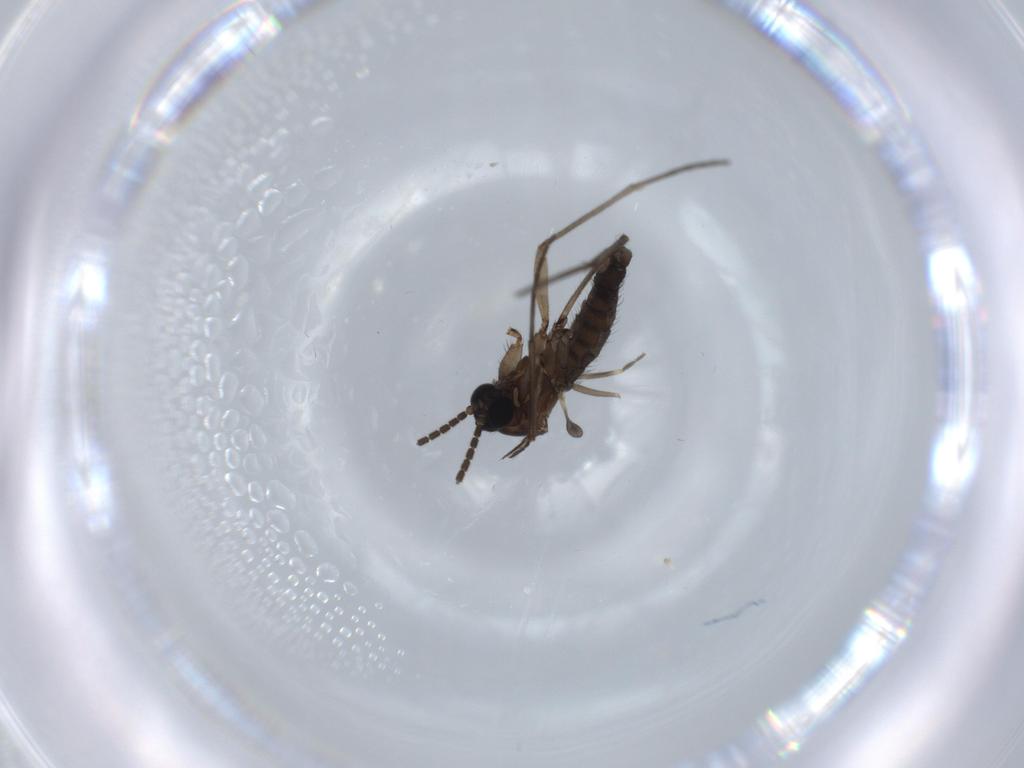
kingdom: Animalia
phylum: Arthropoda
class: Insecta
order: Diptera
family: Sciaridae
